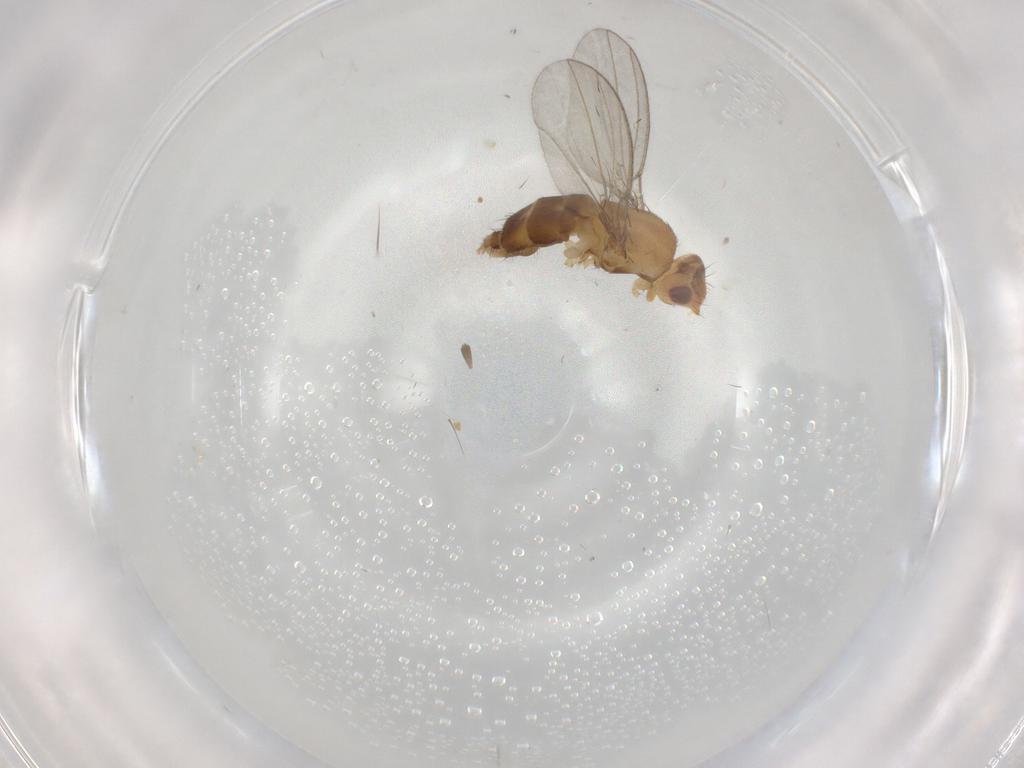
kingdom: Animalia
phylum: Arthropoda
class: Insecta
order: Diptera
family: Milichiidae
